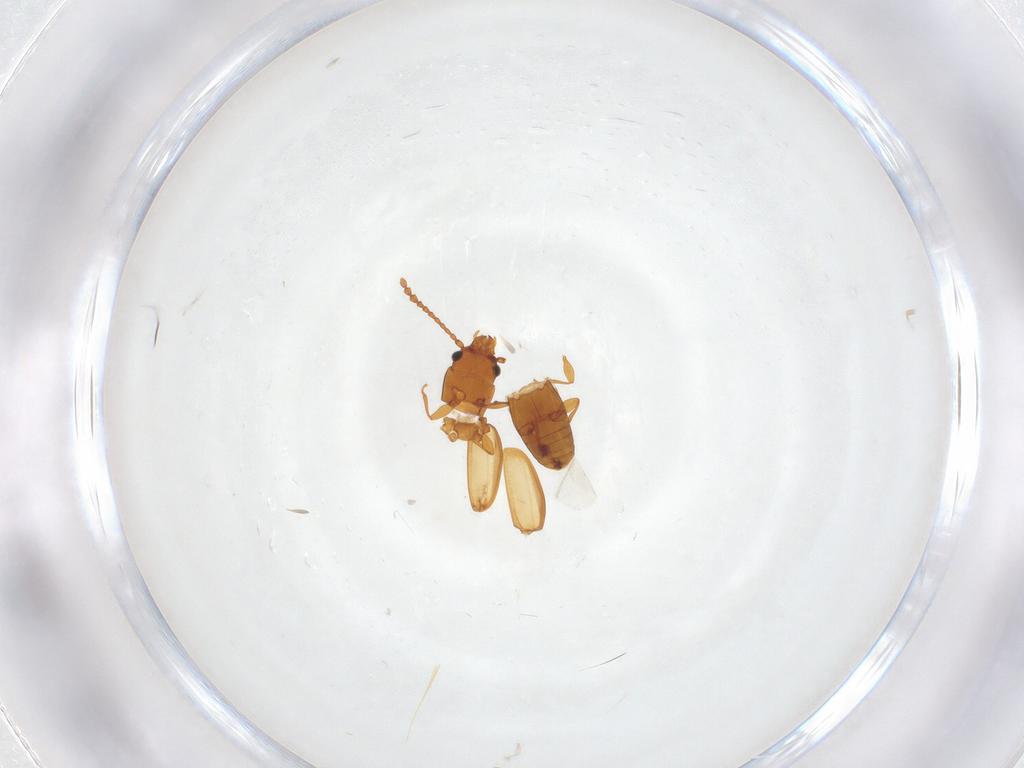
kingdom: Animalia
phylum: Arthropoda
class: Insecta
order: Coleoptera
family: Laemophloeidae
